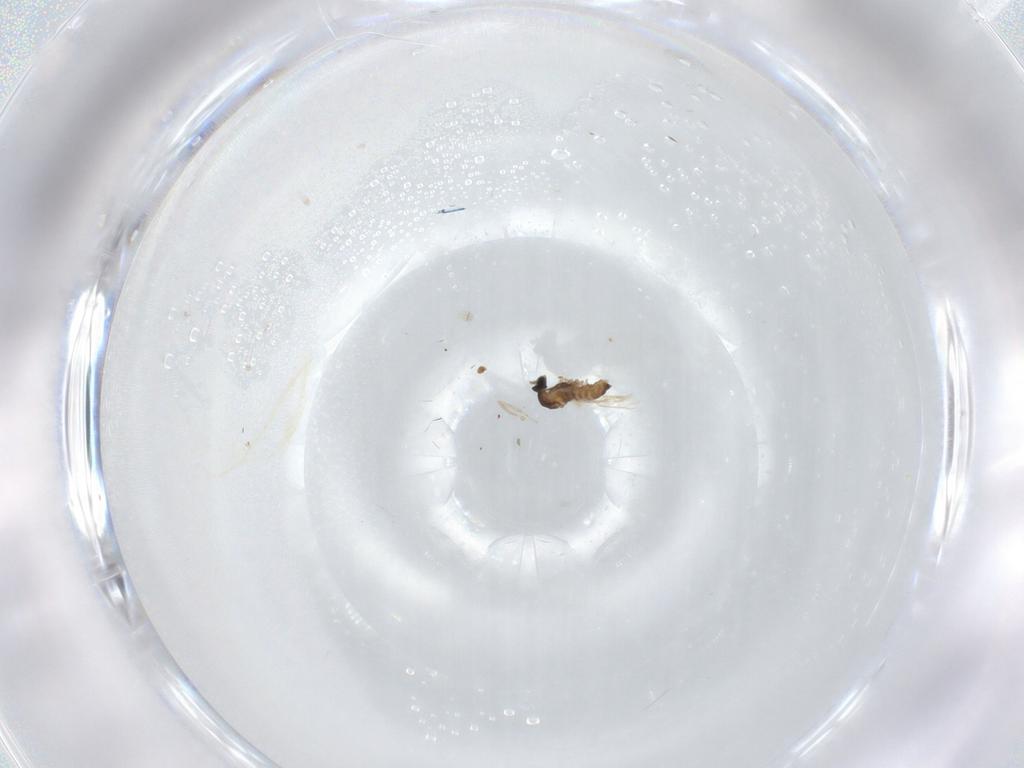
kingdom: Animalia
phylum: Arthropoda
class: Insecta
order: Diptera
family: Cecidomyiidae
